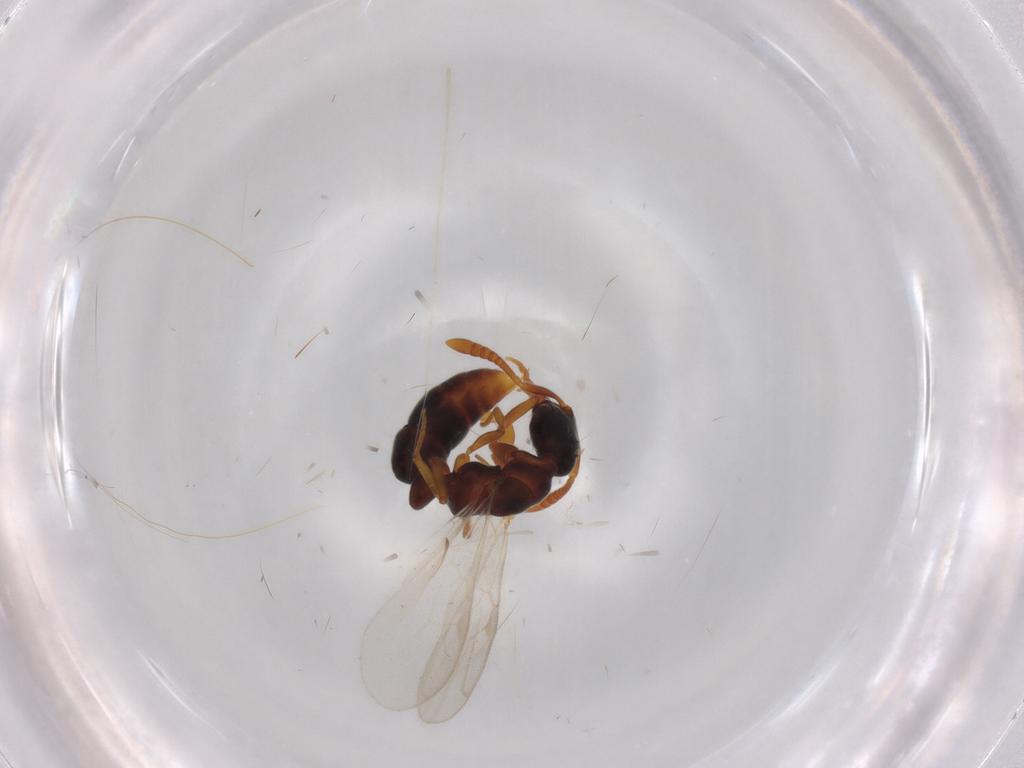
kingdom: Animalia
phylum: Arthropoda
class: Insecta
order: Hymenoptera
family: Formicidae
